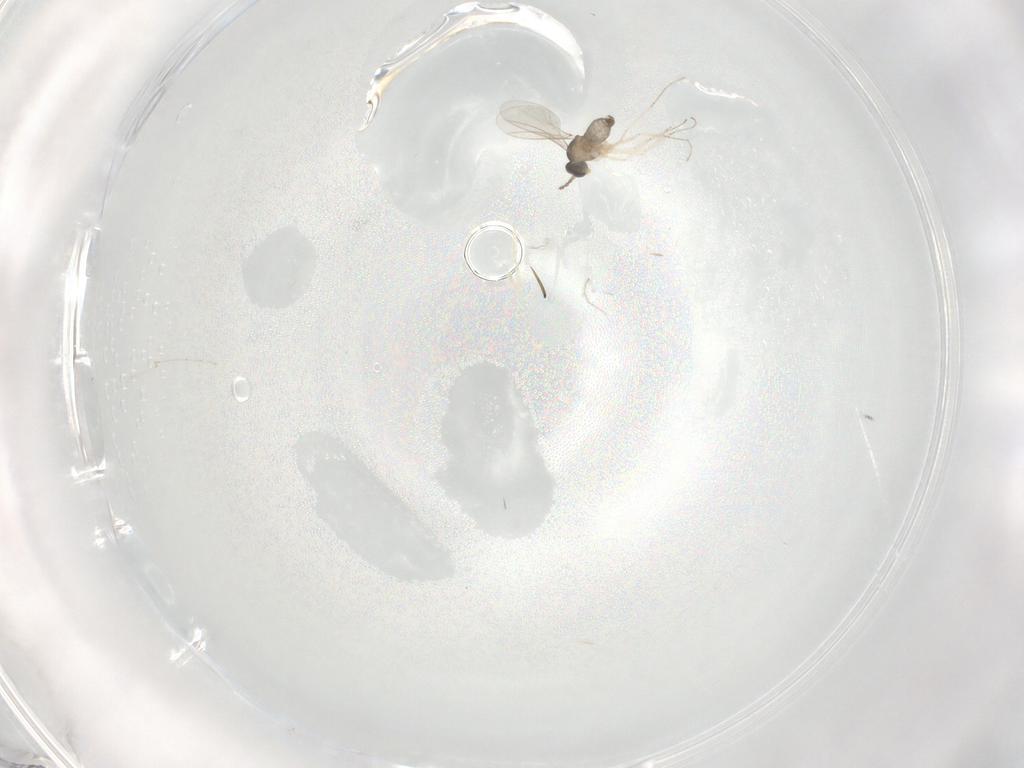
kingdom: Animalia
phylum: Arthropoda
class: Insecta
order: Diptera
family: Cecidomyiidae
